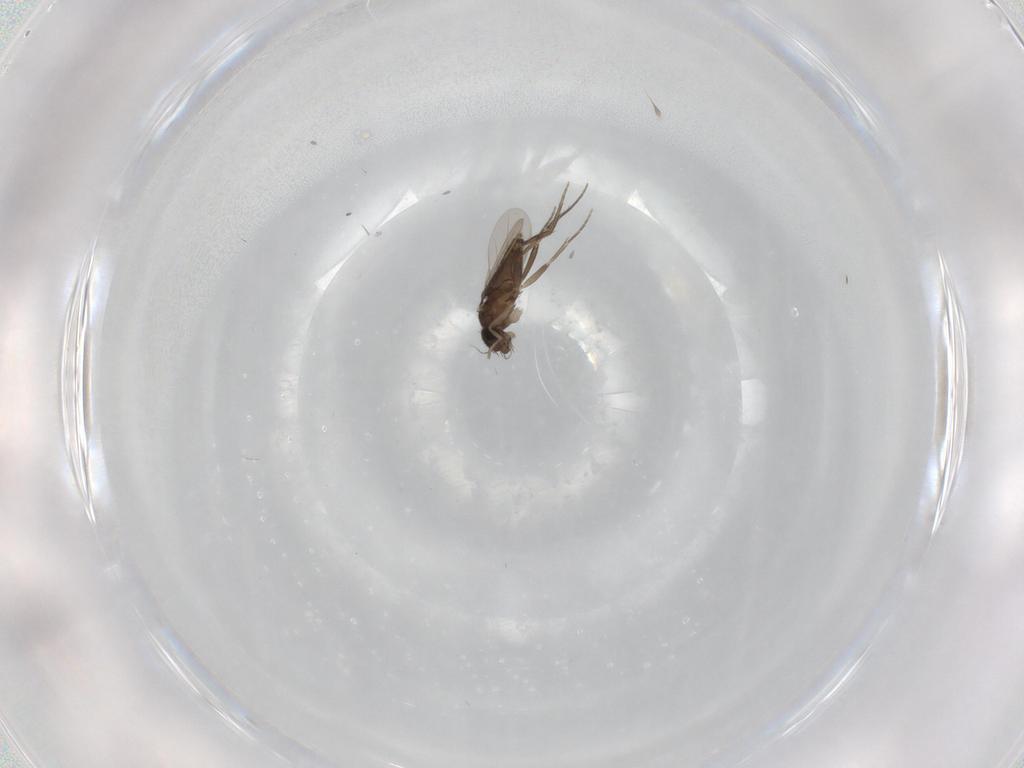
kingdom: Animalia
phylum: Arthropoda
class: Insecta
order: Diptera
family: Phoridae
